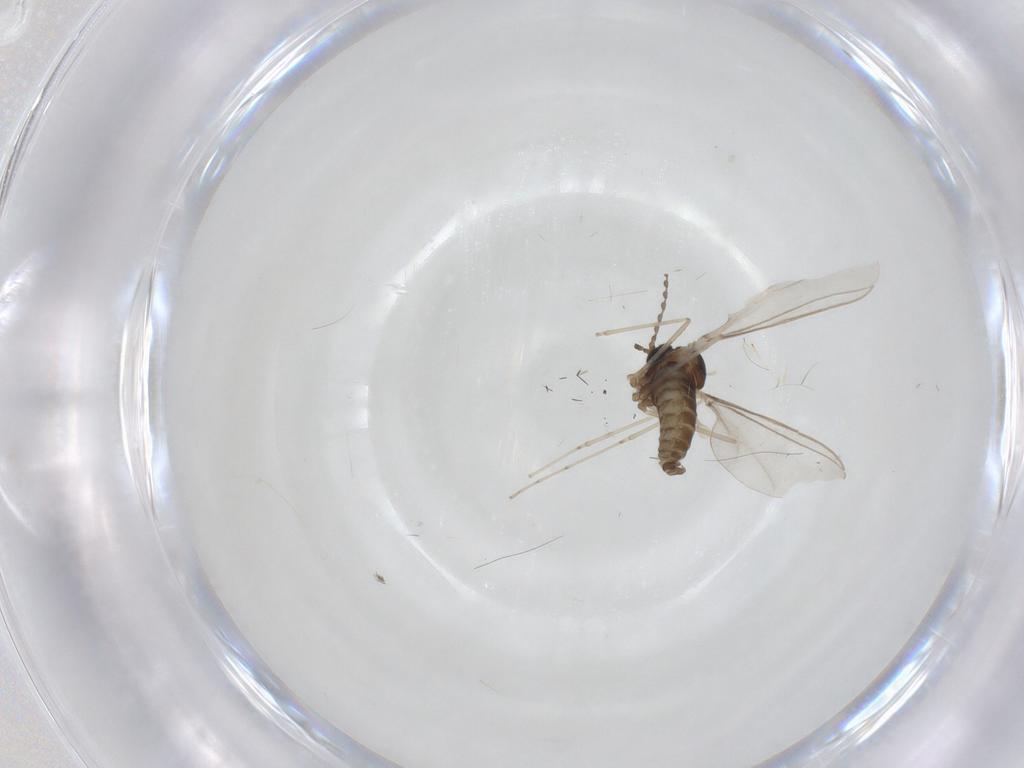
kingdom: Animalia
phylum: Arthropoda
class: Insecta
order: Diptera
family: Cecidomyiidae
